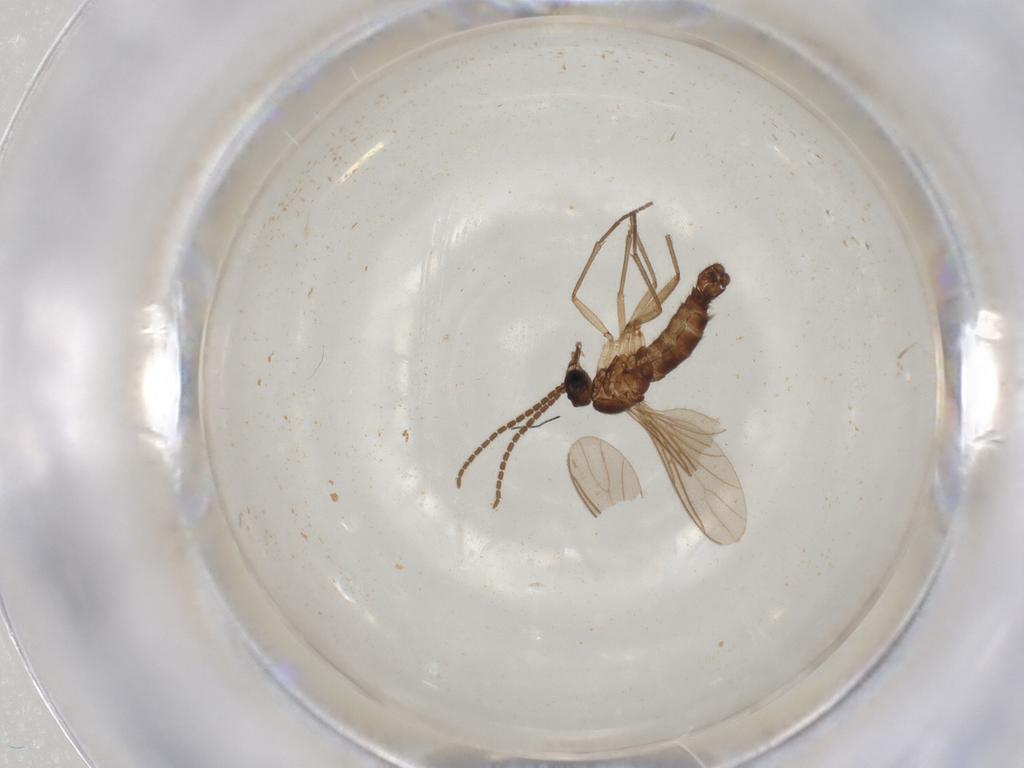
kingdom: Animalia
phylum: Arthropoda
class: Insecta
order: Diptera
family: Sciaridae
